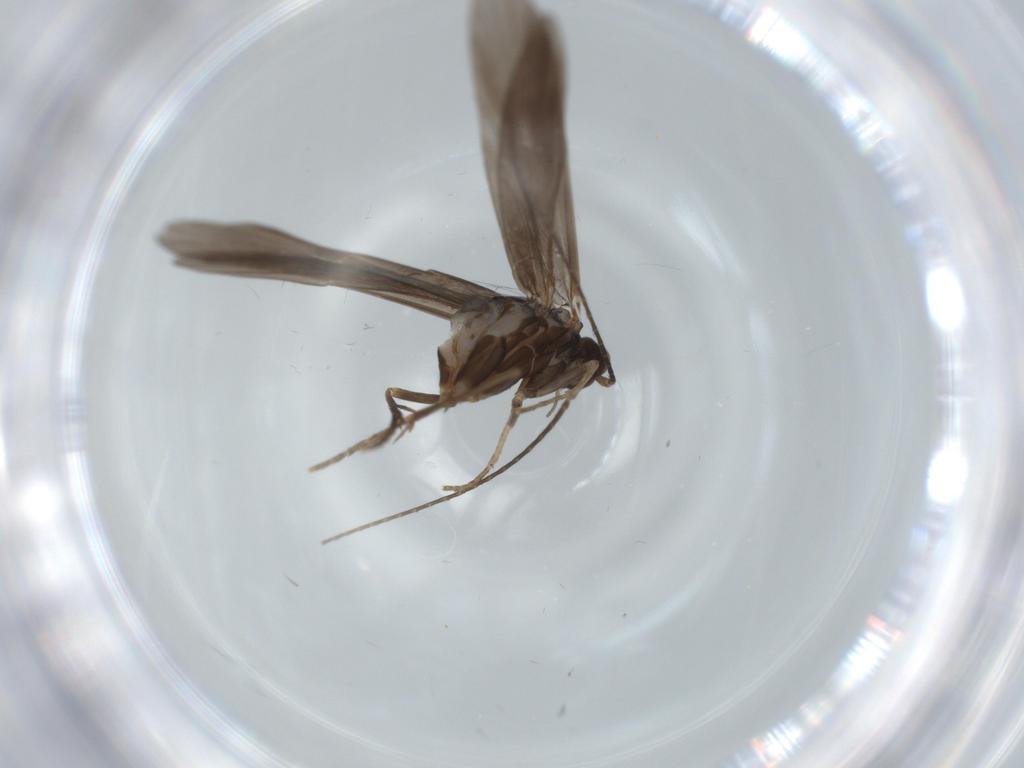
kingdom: Animalia
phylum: Arthropoda
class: Insecta
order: Trichoptera
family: Xiphocentronidae
